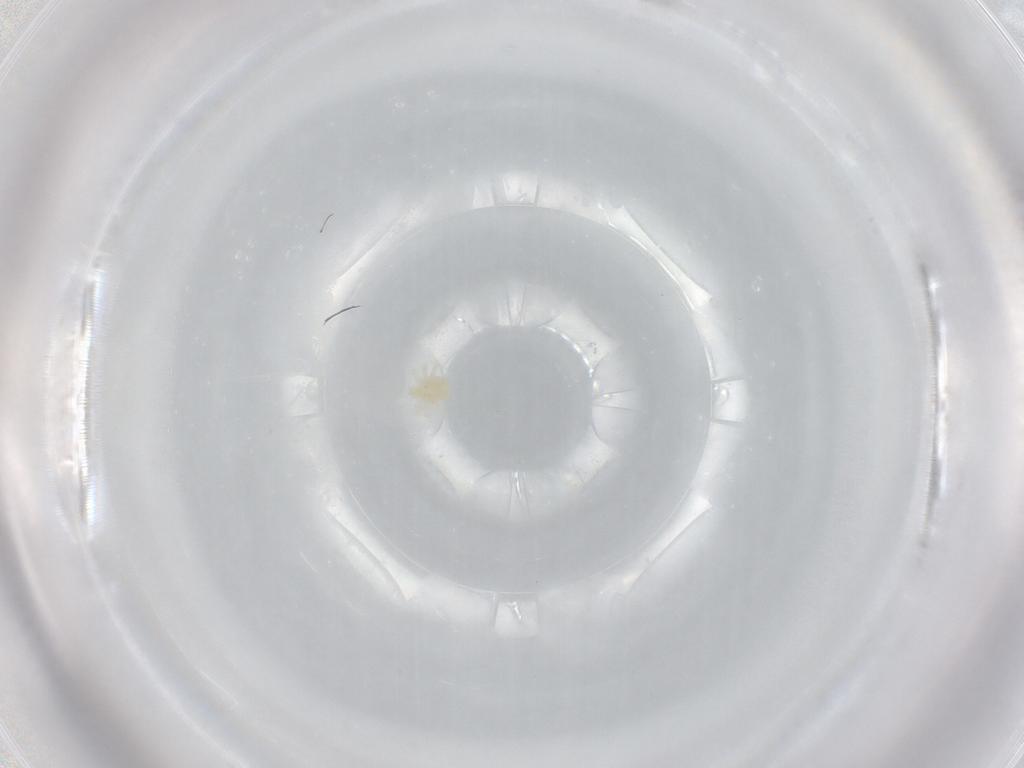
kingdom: Animalia
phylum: Arthropoda
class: Arachnida
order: Trombidiformes
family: Anystidae
